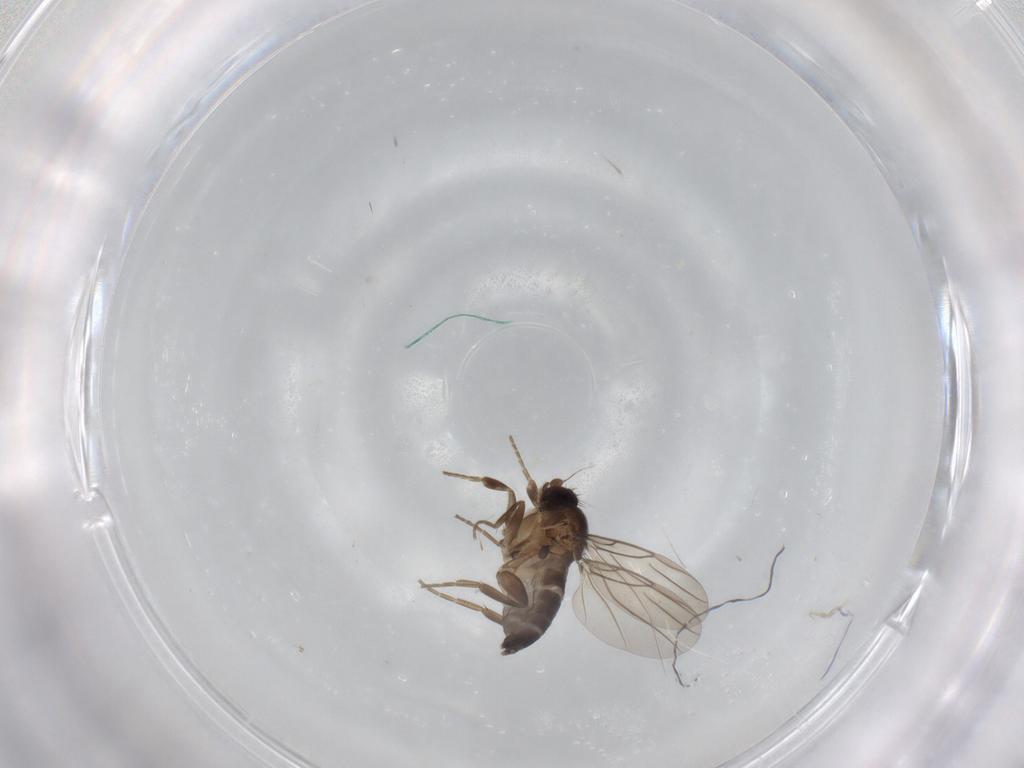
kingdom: Animalia
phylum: Arthropoda
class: Insecta
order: Diptera
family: Phoridae
